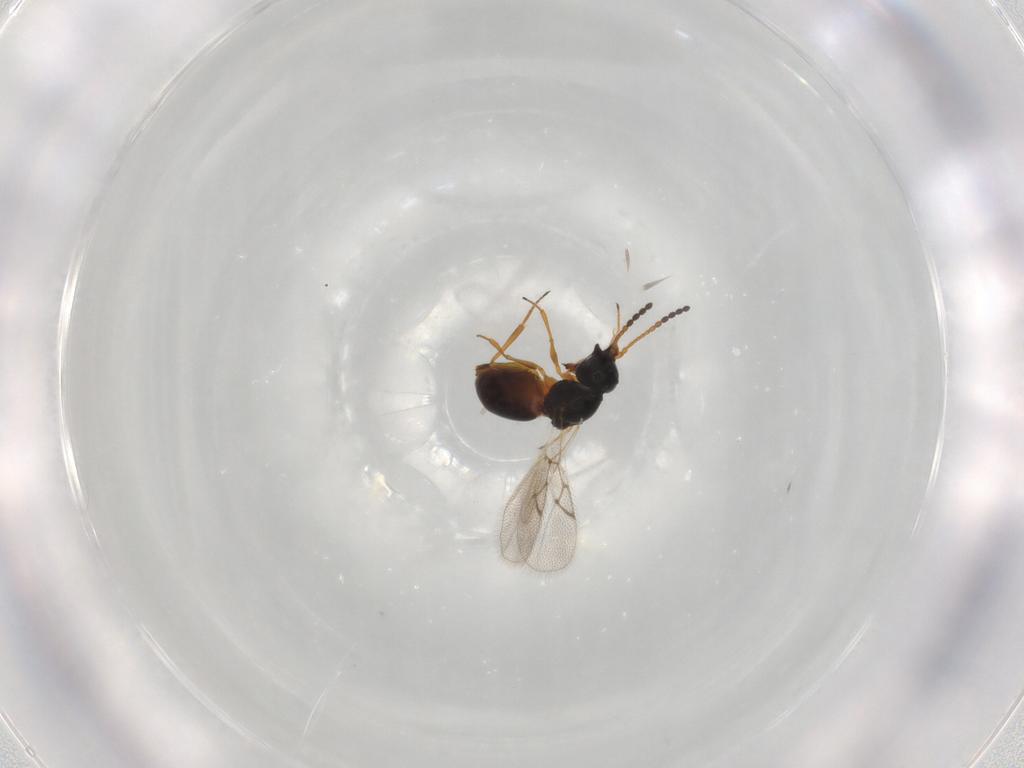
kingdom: Animalia
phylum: Arthropoda
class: Insecta
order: Hymenoptera
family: Figitidae
